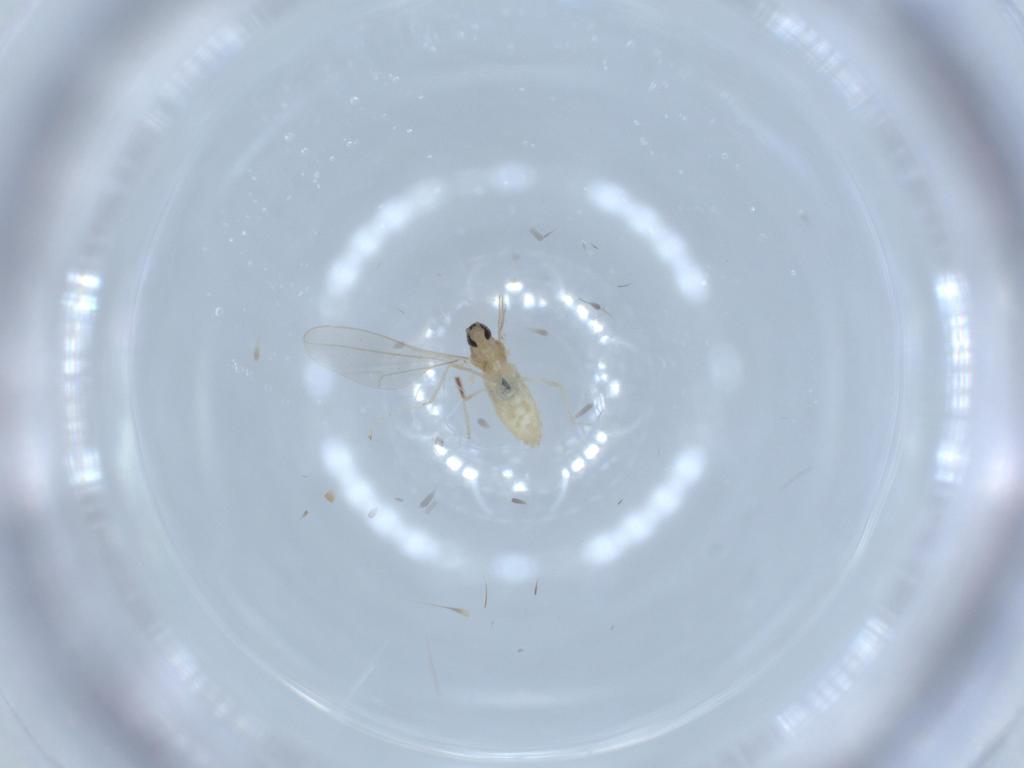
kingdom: Animalia
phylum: Arthropoda
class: Insecta
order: Diptera
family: Cecidomyiidae
